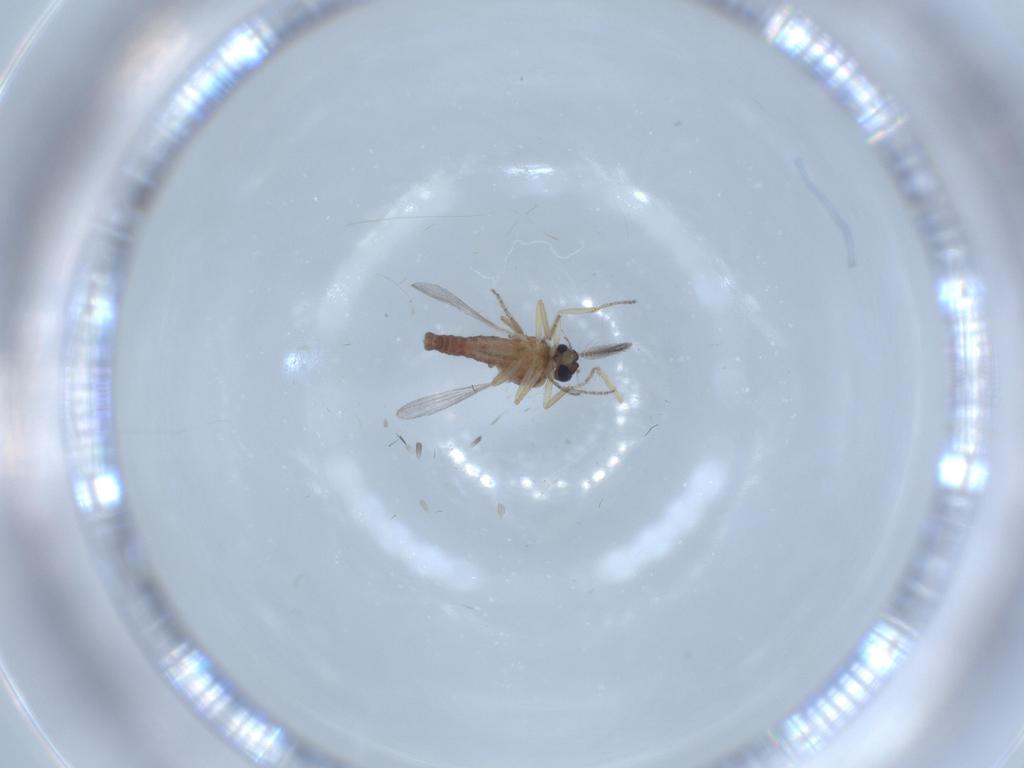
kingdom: Animalia
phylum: Arthropoda
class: Insecta
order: Diptera
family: Ceratopogonidae
